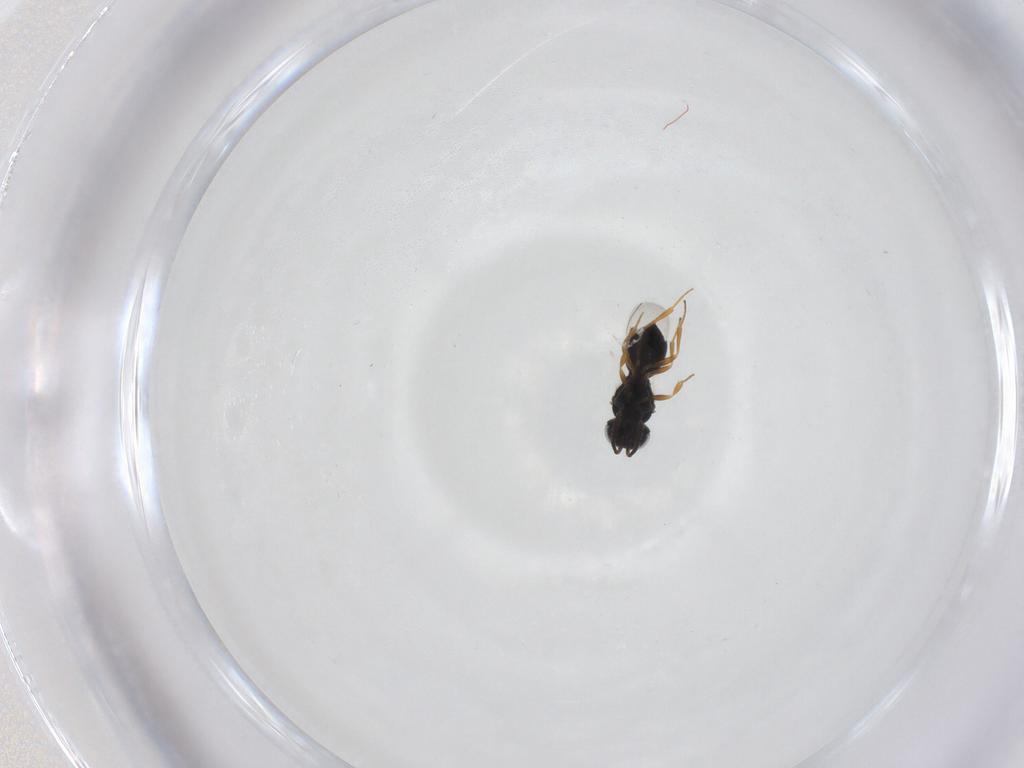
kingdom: Animalia
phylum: Arthropoda
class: Insecta
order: Hymenoptera
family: Scelionidae
